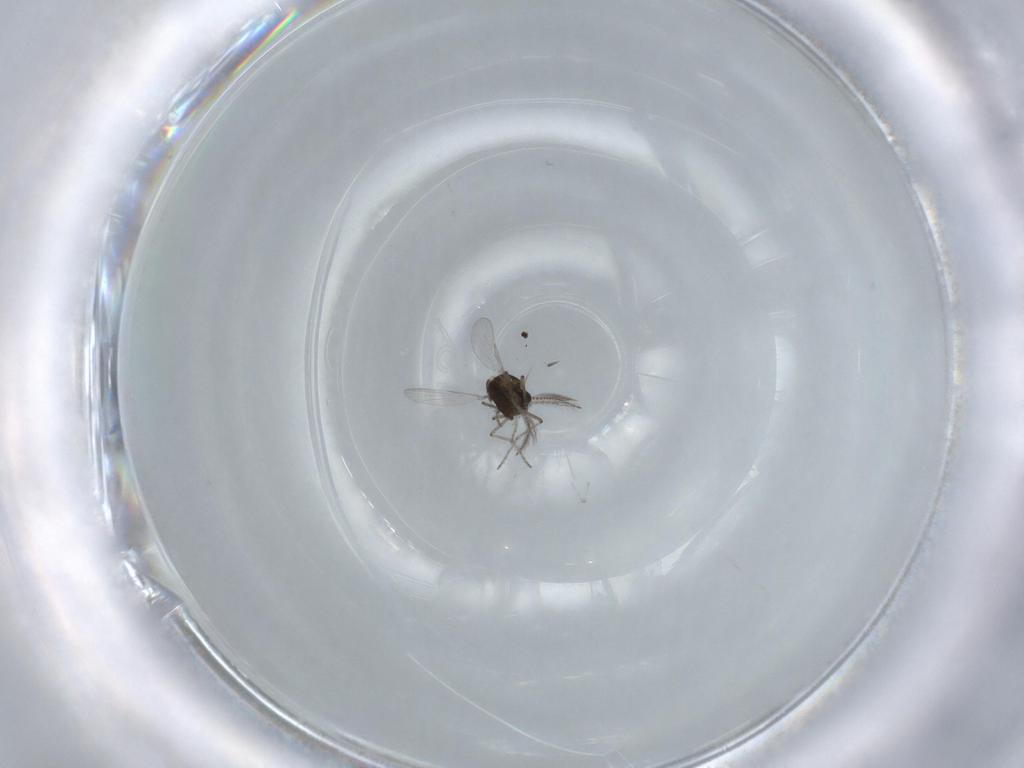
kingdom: Animalia
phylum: Arthropoda
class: Insecta
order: Diptera
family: Ceratopogonidae
